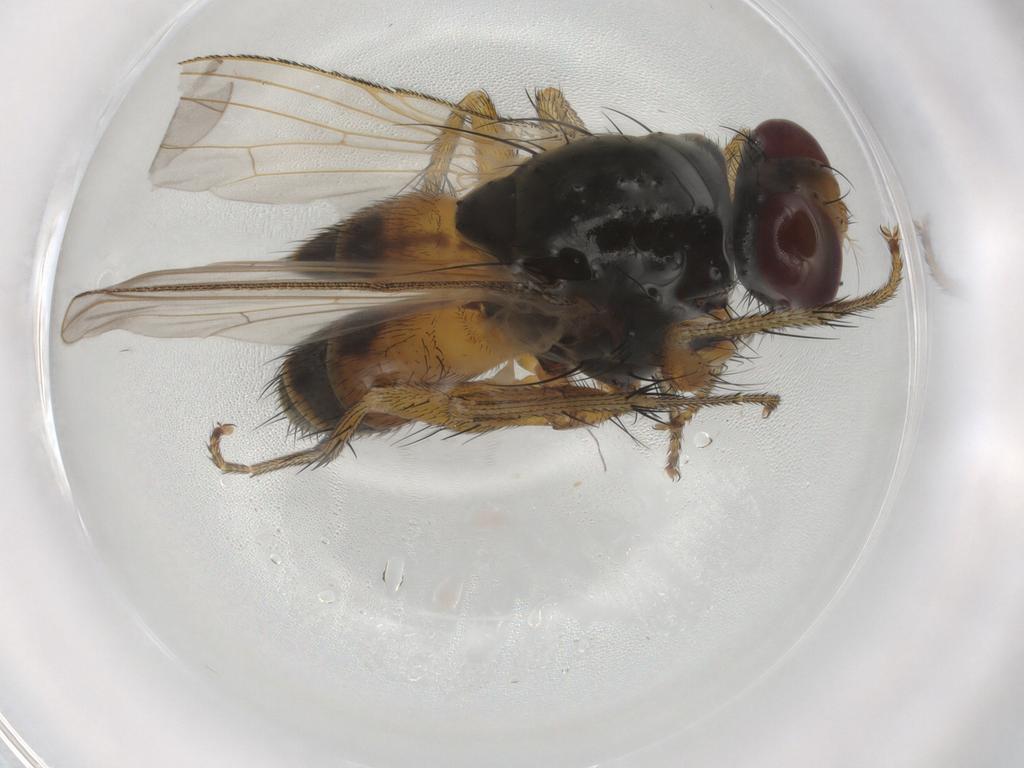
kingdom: Animalia
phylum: Arthropoda
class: Insecta
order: Diptera
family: Muscidae
